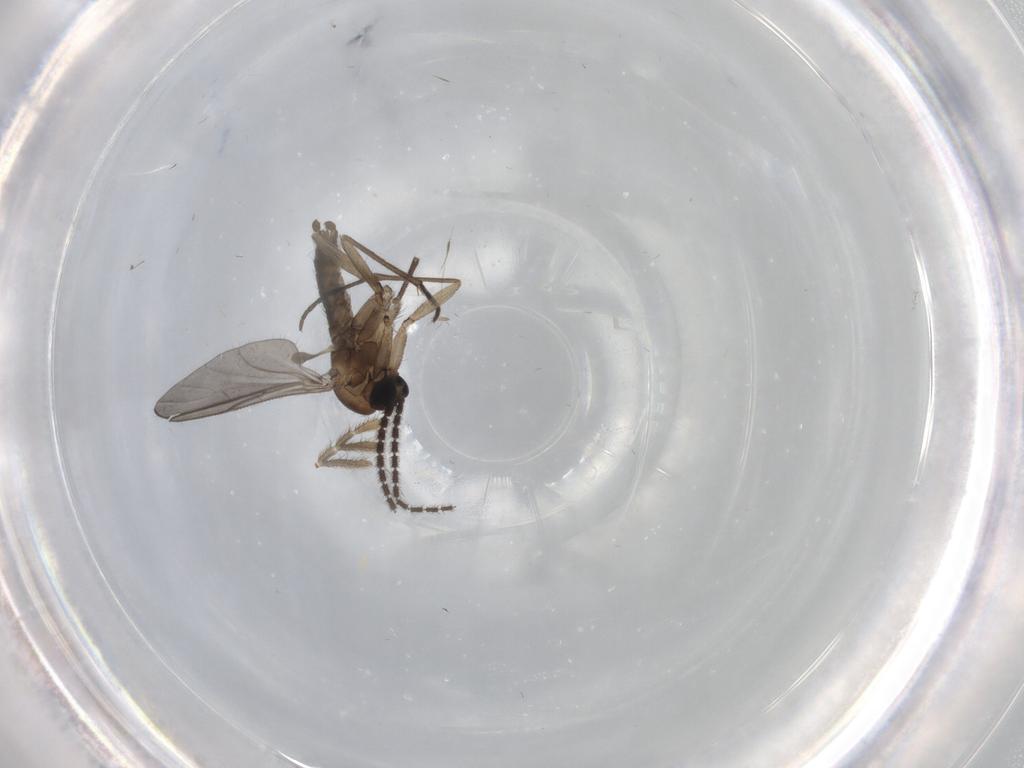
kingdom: Animalia
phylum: Arthropoda
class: Insecta
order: Diptera
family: Sciaridae
